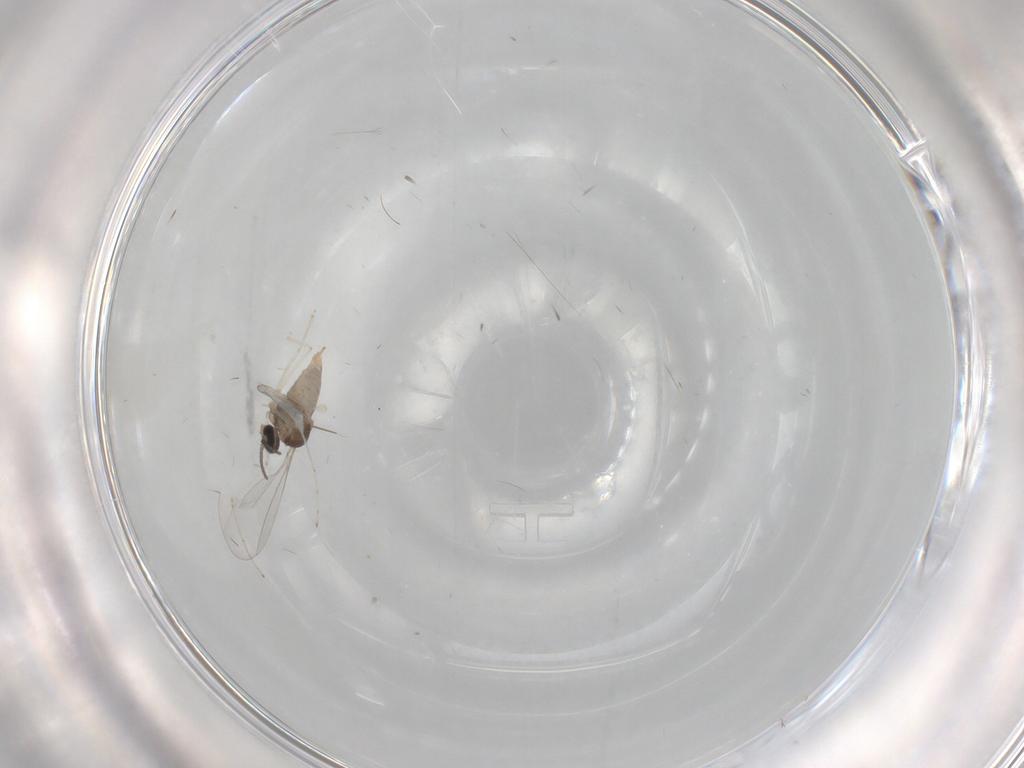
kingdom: Animalia
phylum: Arthropoda
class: Insecta
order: Diptera
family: Cecidomyiidae
